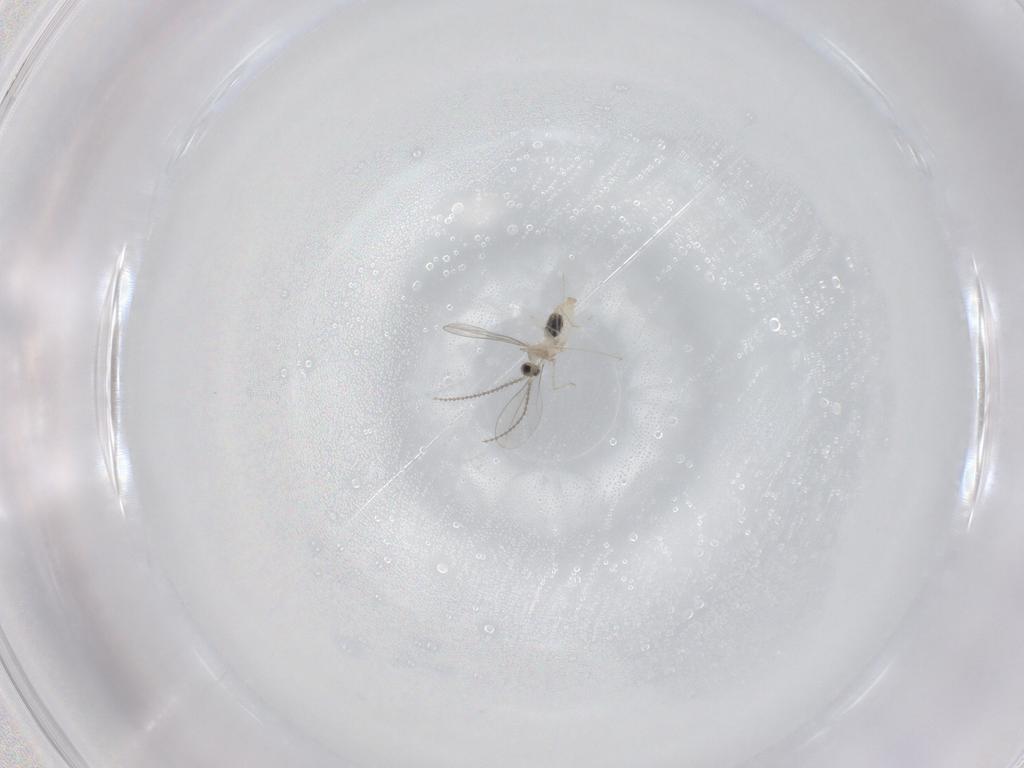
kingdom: Animalia
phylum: Arthropoda
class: Insecta
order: Diptera
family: Cecidomyiidae
